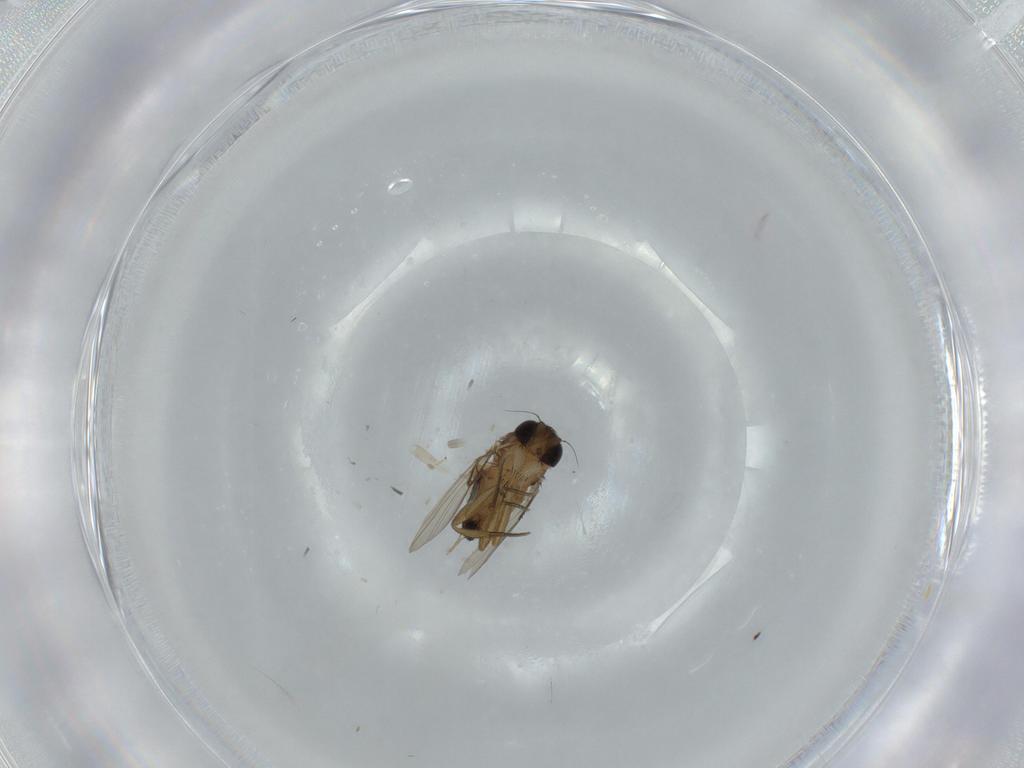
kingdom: Animalia
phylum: Arthropoda
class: Insecta
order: Diptera
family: Phoridae
